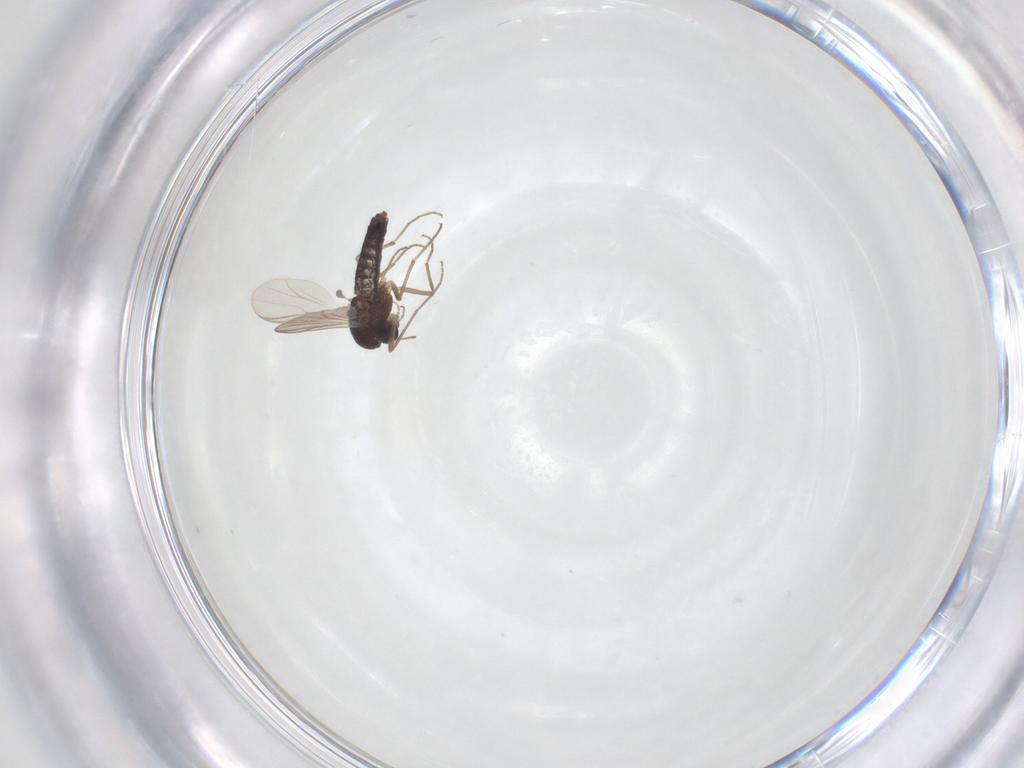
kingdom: Animalia
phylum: Arthropoda
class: Insecta
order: Diptera
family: Chironomidae
